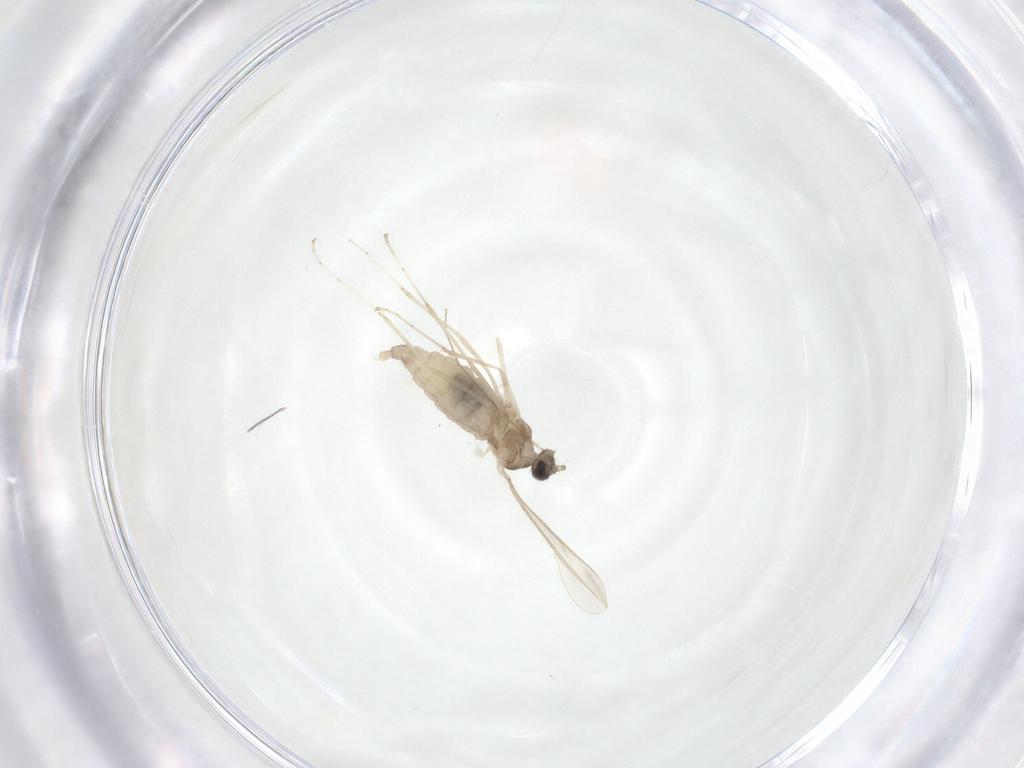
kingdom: Animalia
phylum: Arthropoda
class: Insecta
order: Diptera
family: Cecidomyiidae
